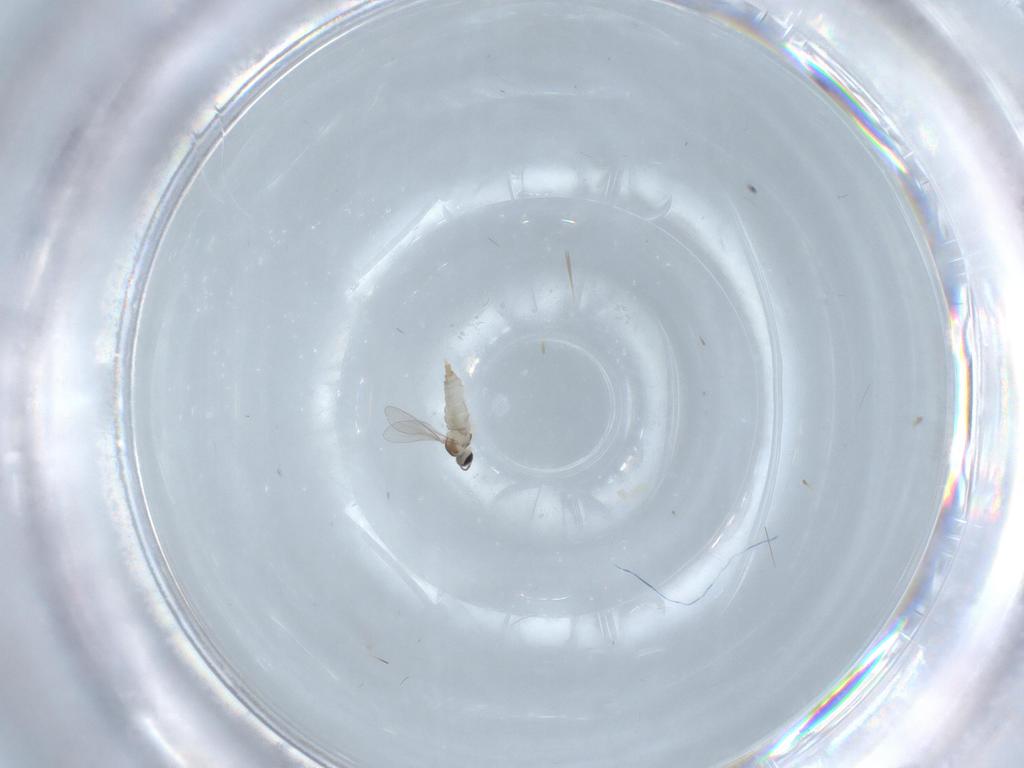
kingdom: Animalia
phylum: Arthropoda
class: Insecta
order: Diptera
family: Milichiidae
